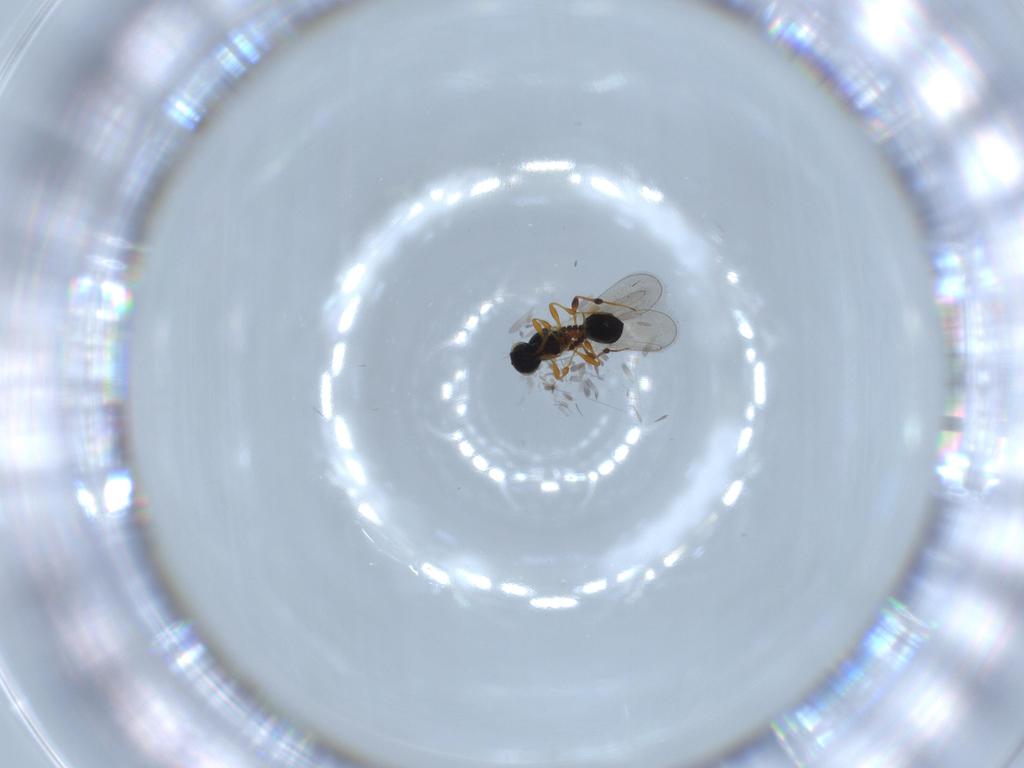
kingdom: Animalia
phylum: Arthropoda
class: Insecta
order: Hymenoptera
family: Platygastridae
